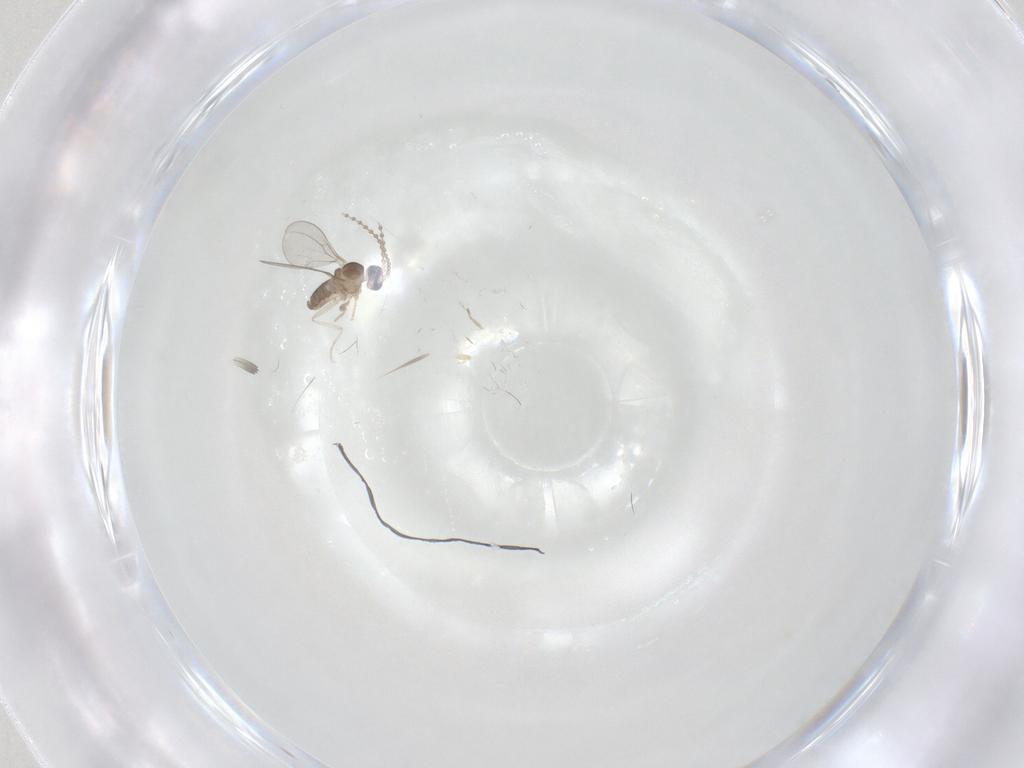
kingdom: Animalia
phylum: Arthropoda
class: Insecta
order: Diptera
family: Cecidomyiidae
